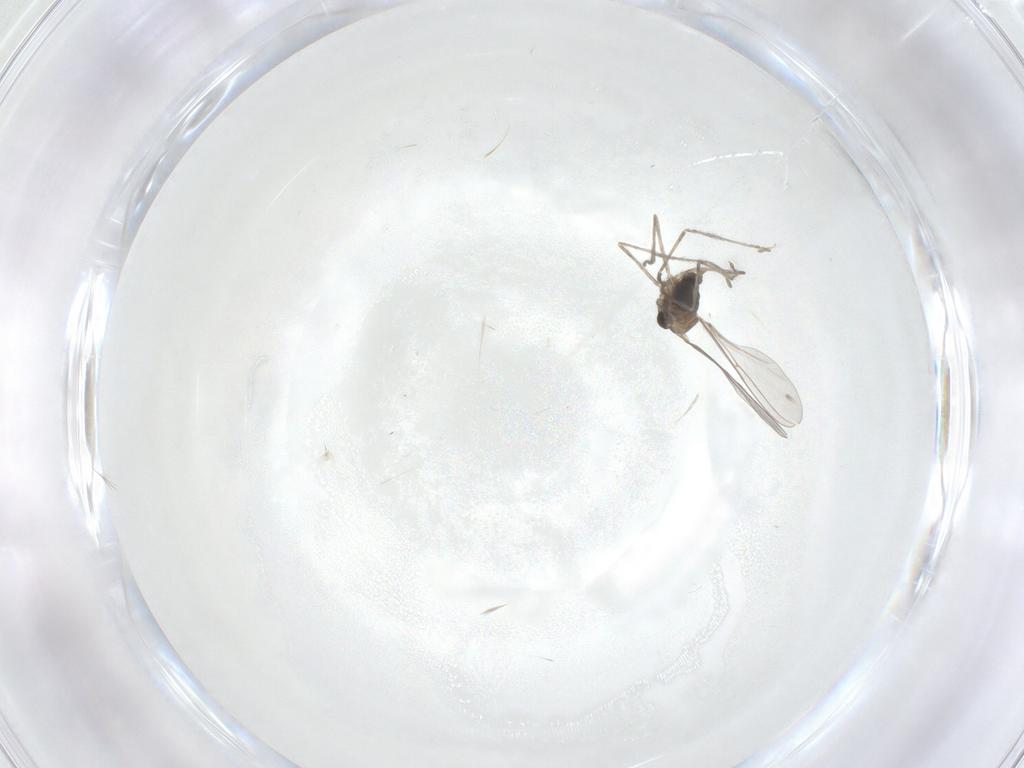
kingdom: Animalia
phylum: Arthropoda
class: Insecta
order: Diptera
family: Cecidomyiidae
